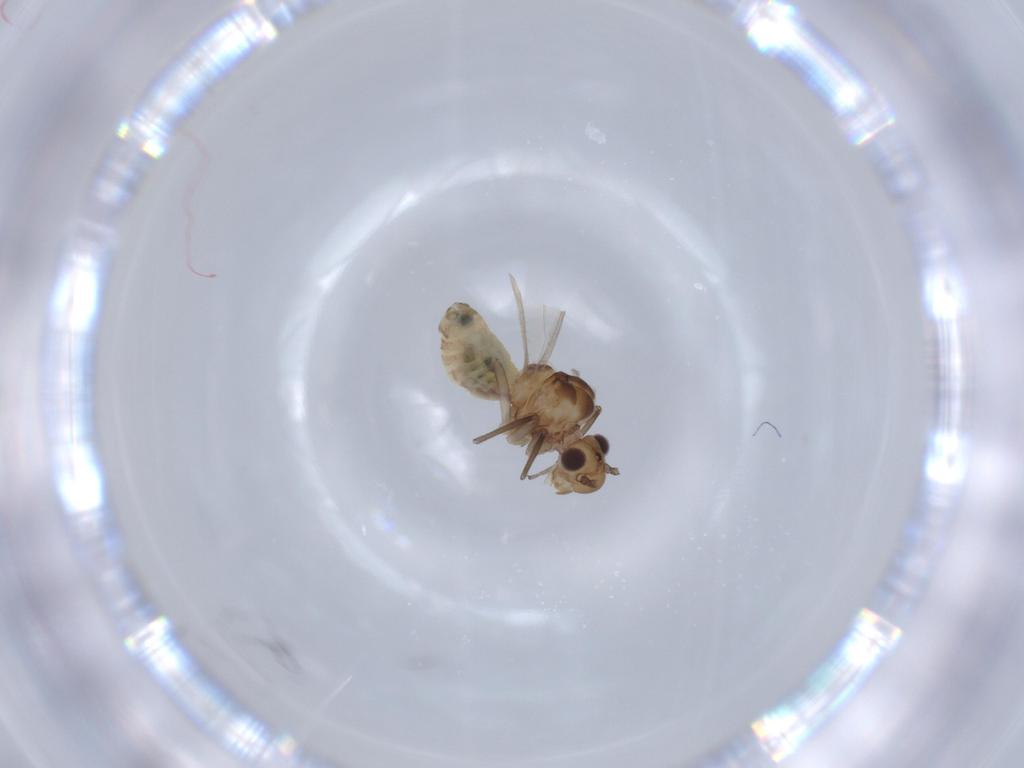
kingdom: Animalia
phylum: Arthropoda
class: Insecta
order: Psocodea
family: Caeciliusidae
